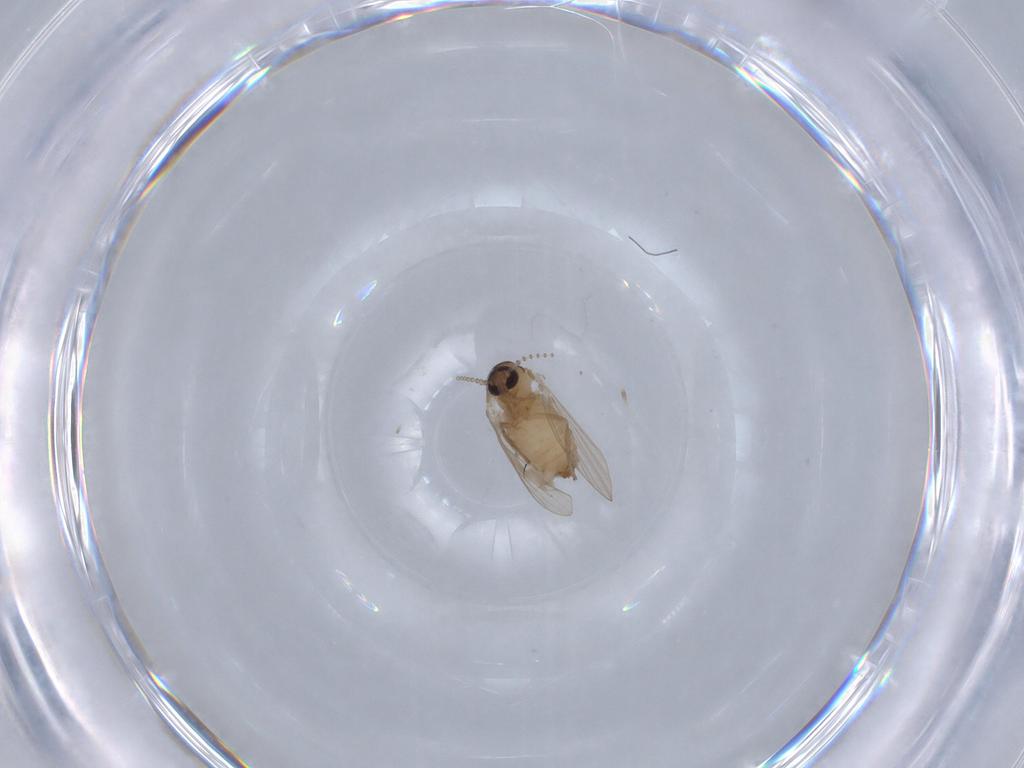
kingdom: Animalia
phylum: Arthropoda
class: Insecta
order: Diptera
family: Psychodidae
